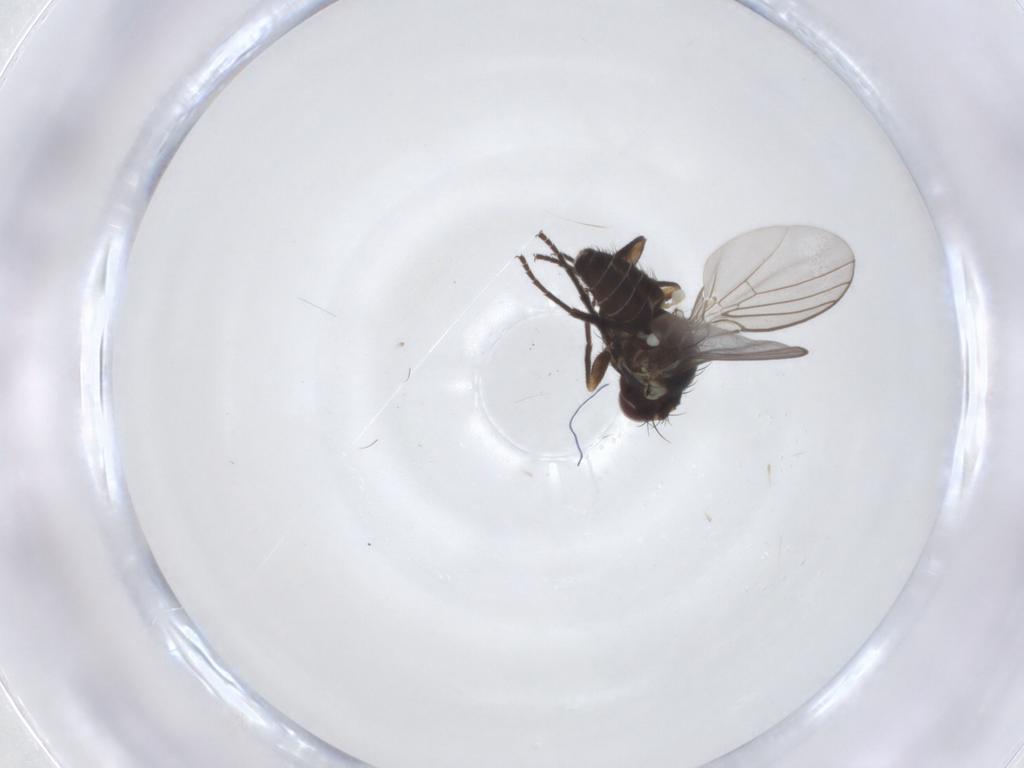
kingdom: Animalia
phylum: Arthropoda
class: Insecta
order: Diptera
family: Agromyzidae
